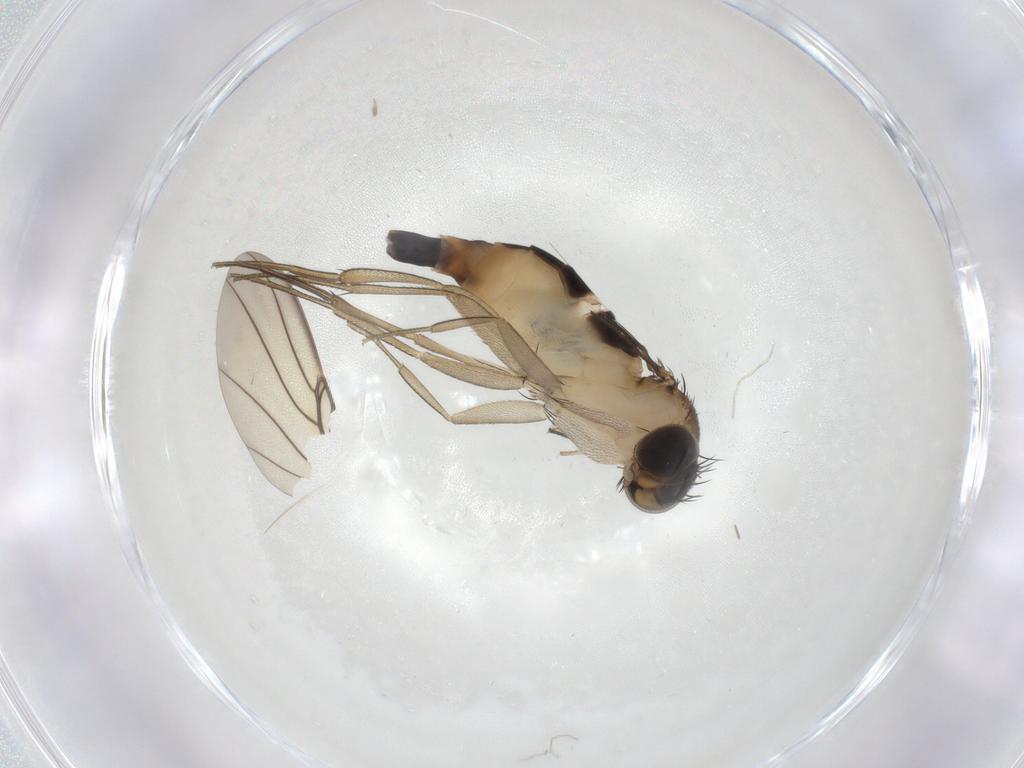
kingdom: Animalia
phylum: Arthropoda
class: Insecta
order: Diptera
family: Phoridae
